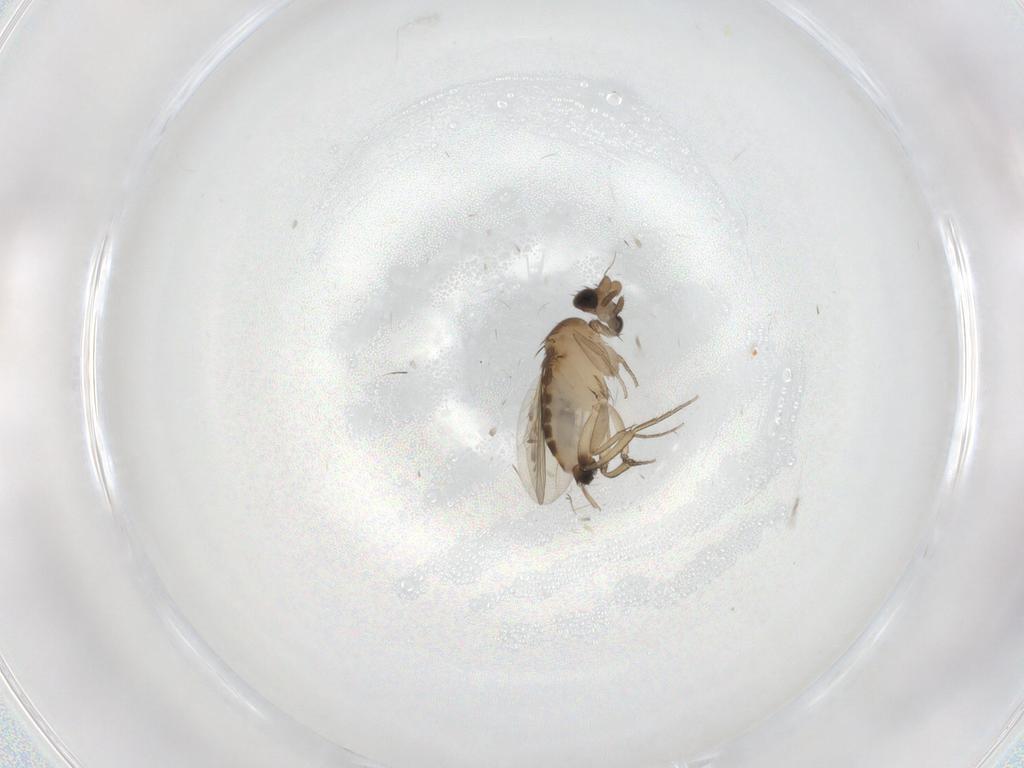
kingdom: Animalia
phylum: Arthropoda
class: Insecta
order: Diptera
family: Phoridae
